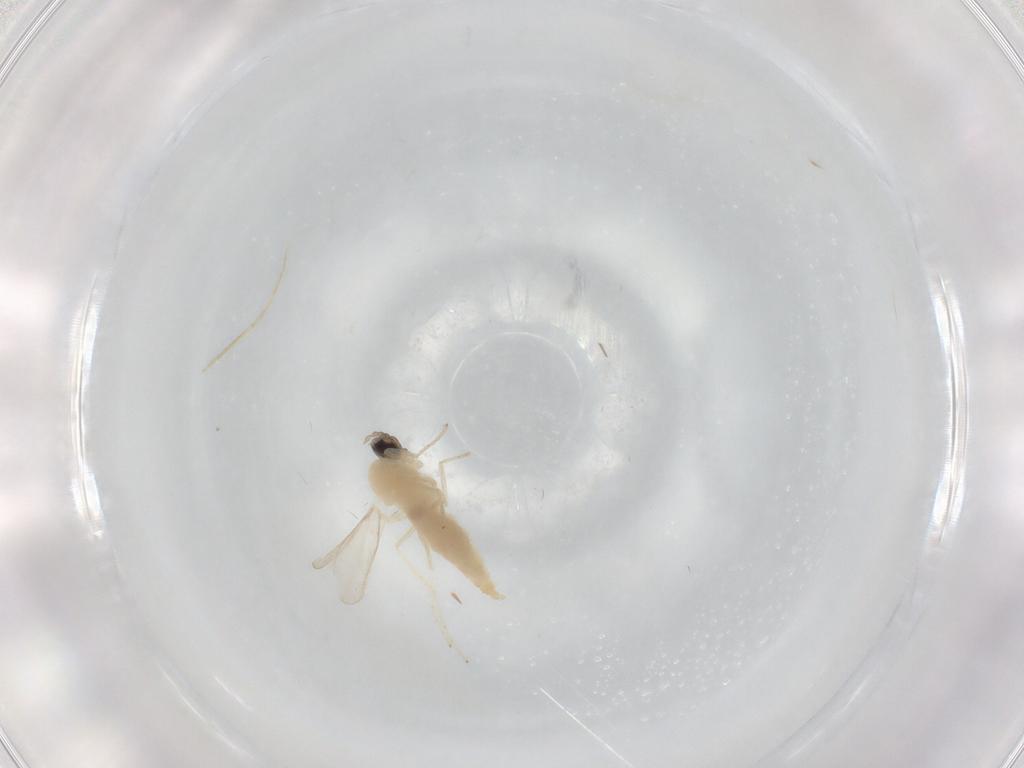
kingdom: Animalia
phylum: Arthropoda
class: Insecta
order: Diptera
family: Cecidomyiidae
